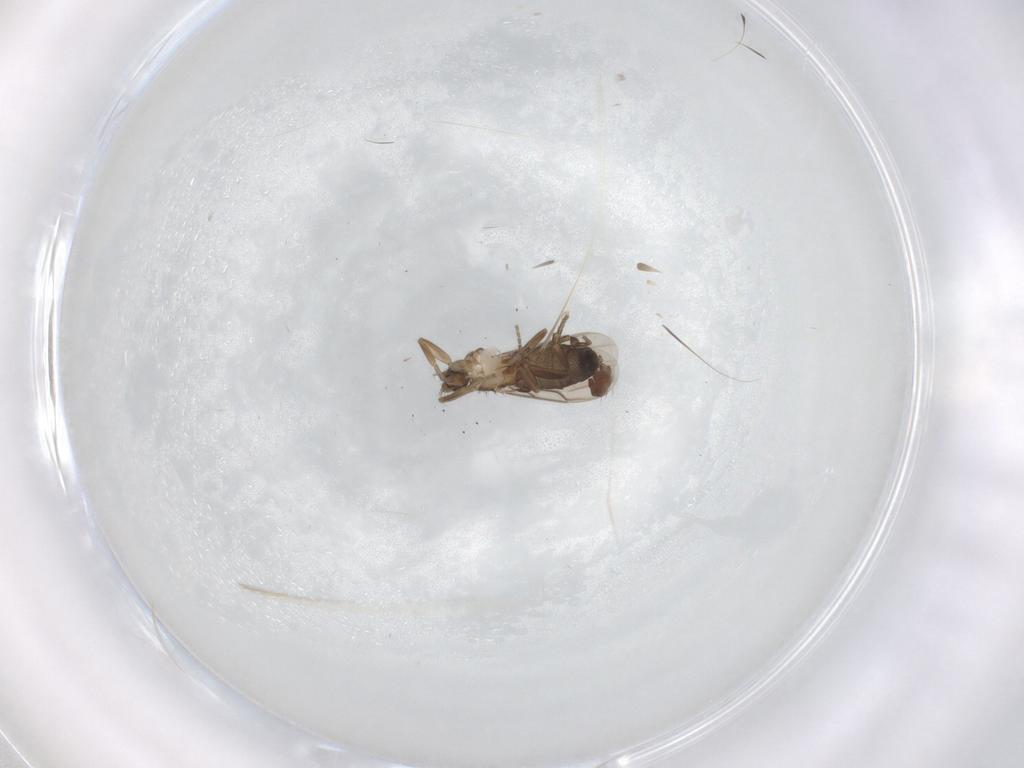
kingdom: Animalia
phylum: Arthropoda
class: Insecta
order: Diptera
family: Phoridae
